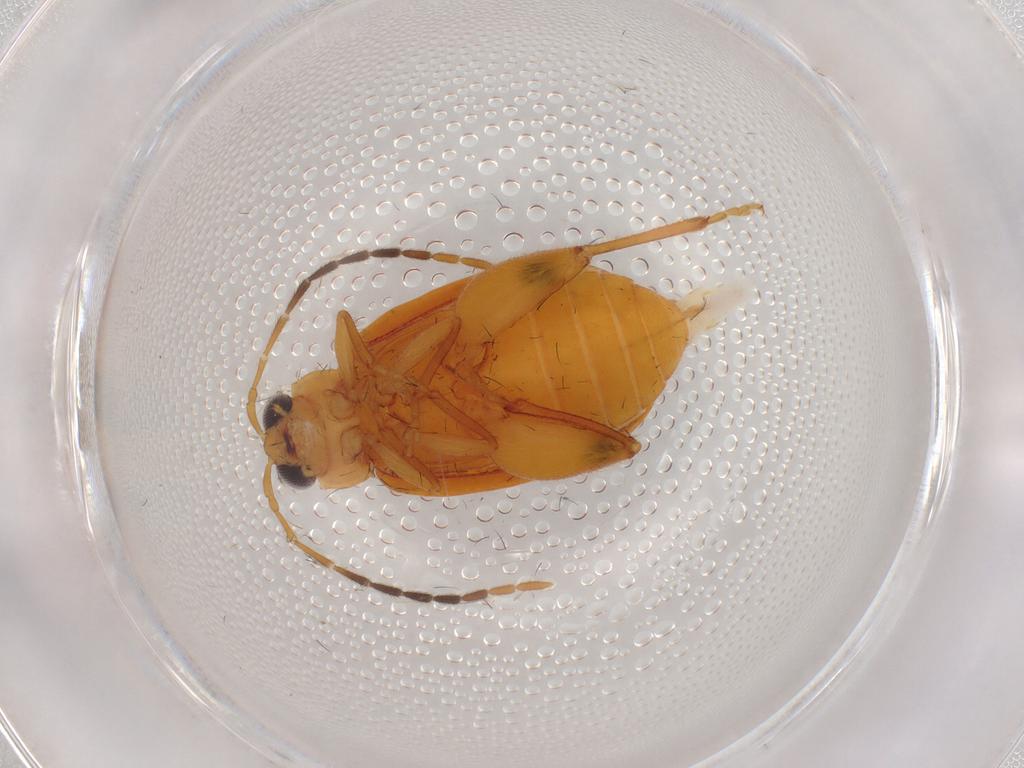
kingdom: Animalia
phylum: Arthropoda
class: Insecta
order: Coleoptera
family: Chrysomelidae
